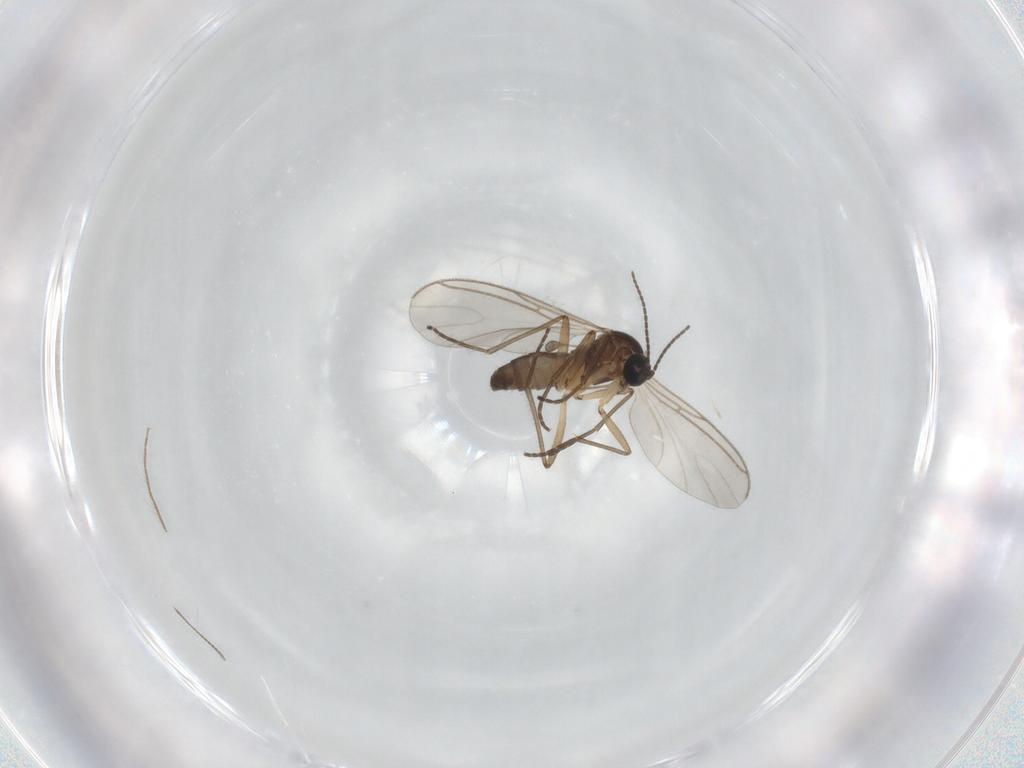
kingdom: Animalia
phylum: Arthropoda
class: Insecta
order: Diptera
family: Sciaridae
